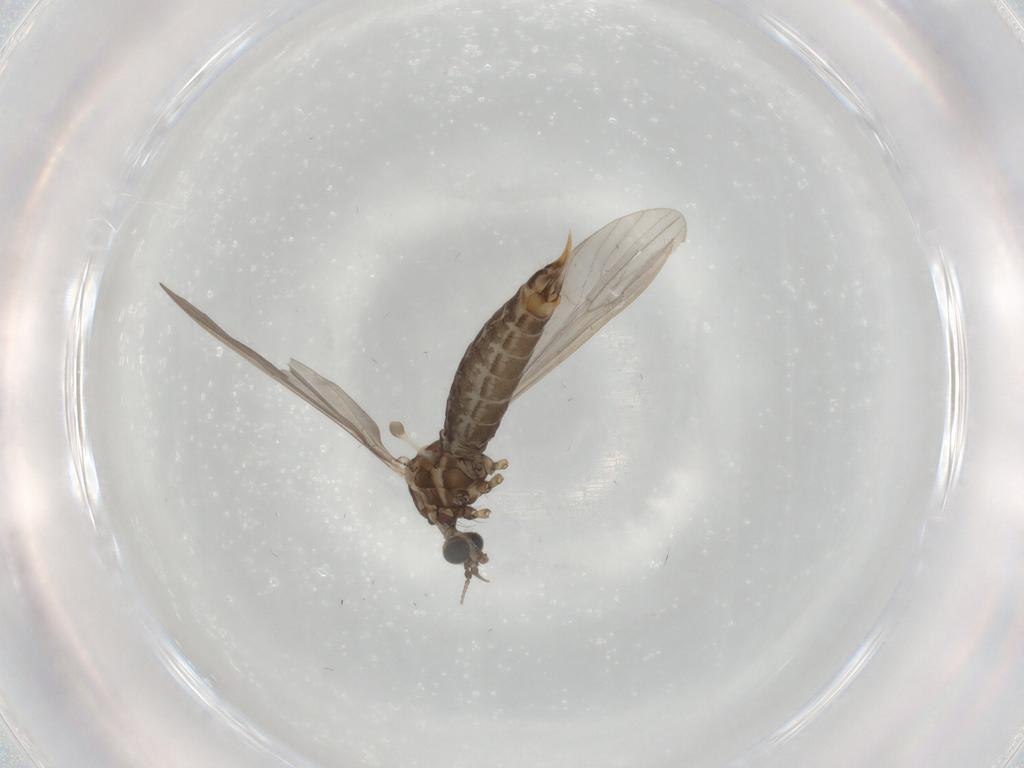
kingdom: Animalia
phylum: Arthropoda
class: Insecta
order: Diptera
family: Limoniidae
